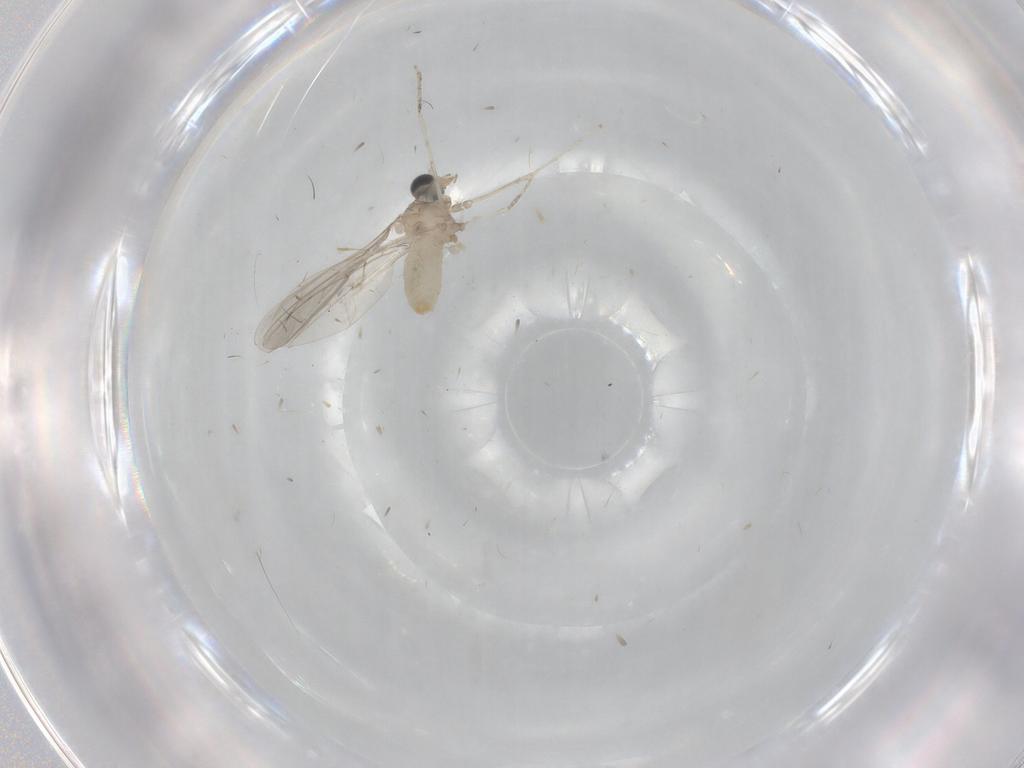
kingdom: Animalia
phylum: Arthropoda
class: Insecta
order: Diptera
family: Cecidomyiidae
